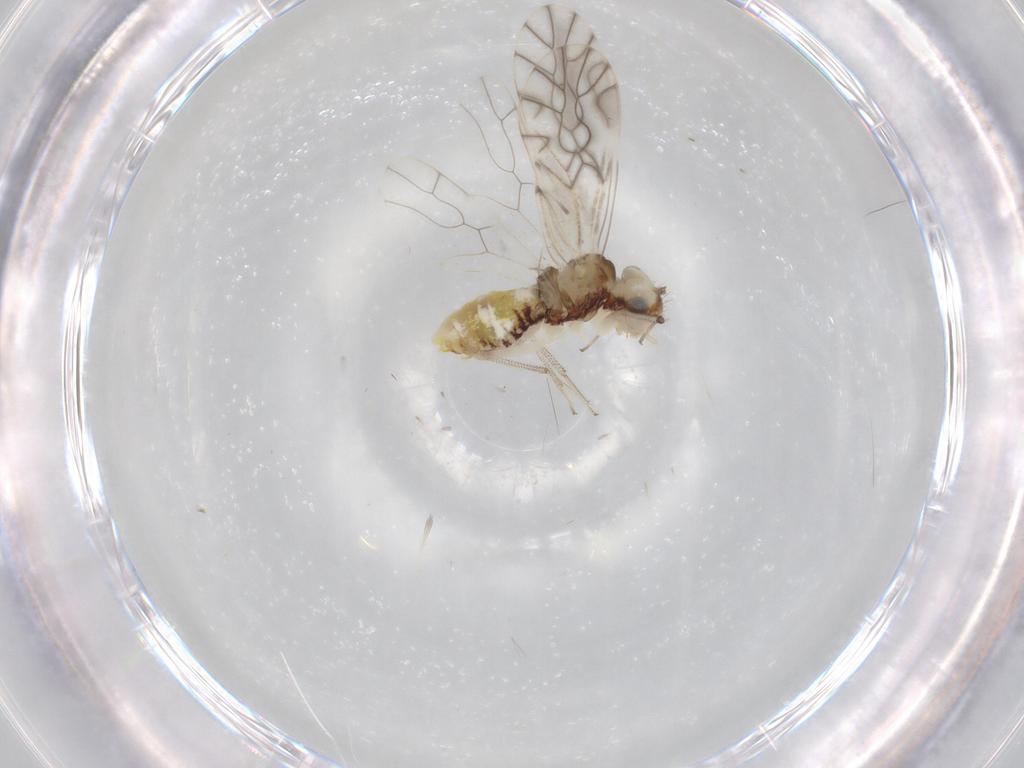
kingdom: Animalia
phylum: Arthropoda
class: Insecta
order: Psocodea
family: Caeciliusidae
